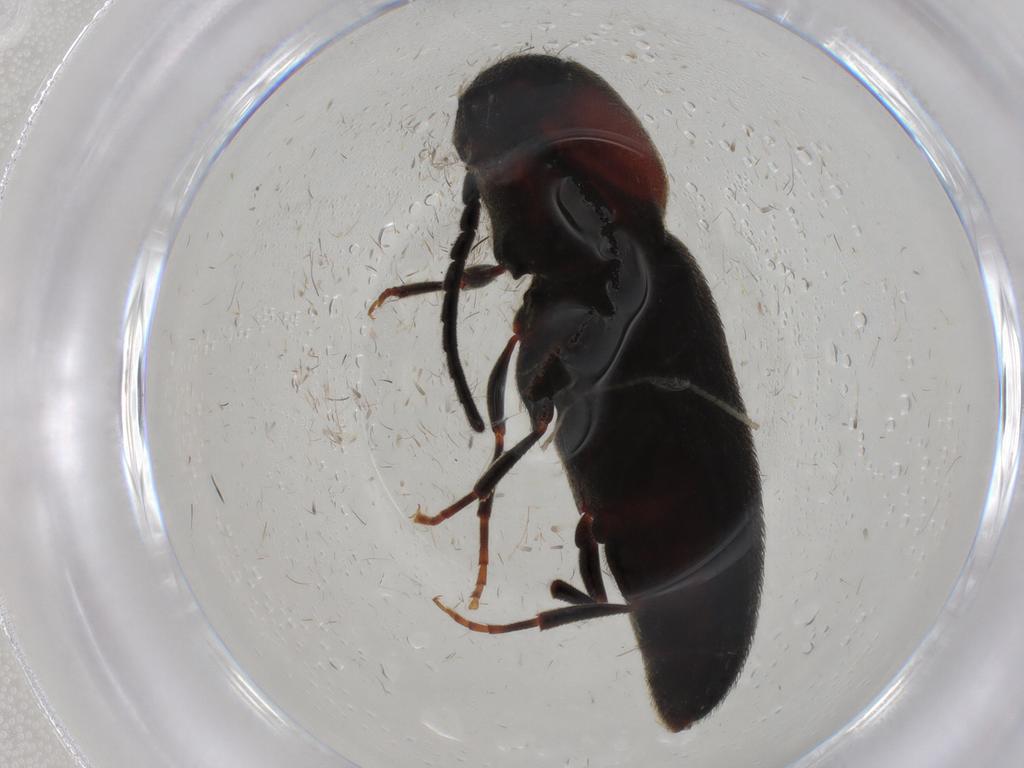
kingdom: Animalia
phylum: Arthropoda
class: Insecta
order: Coleoptera
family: Eucnemidae
